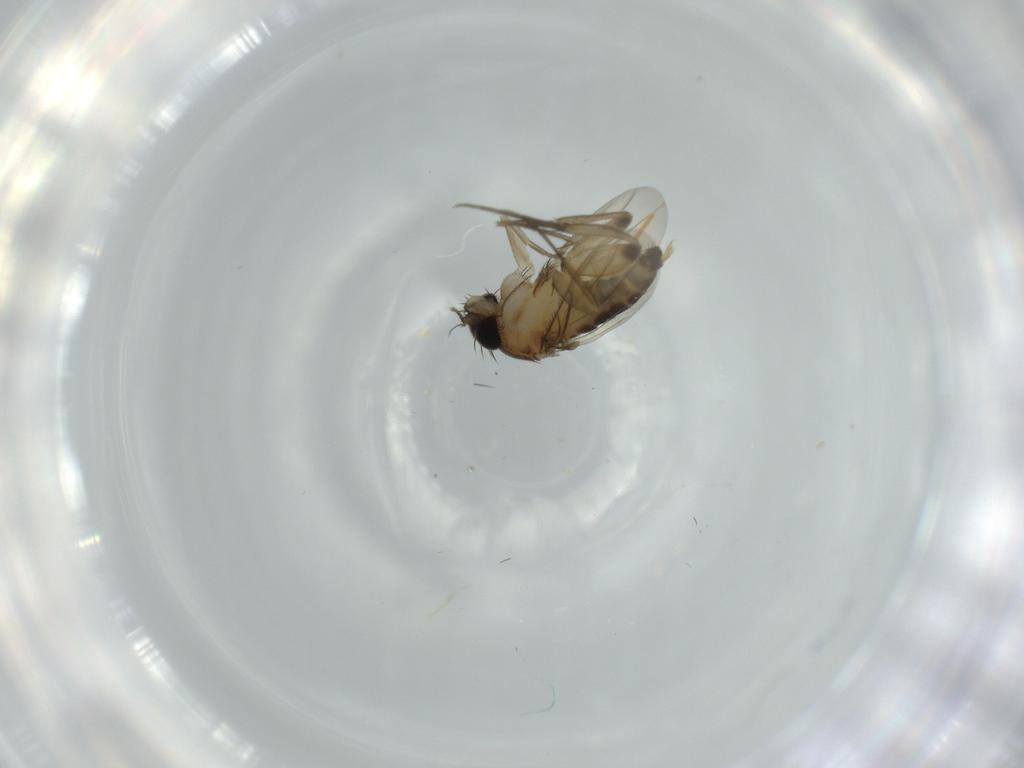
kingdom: Animalia
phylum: Arthropoda
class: Insecta
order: Diptera
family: Phoridae
